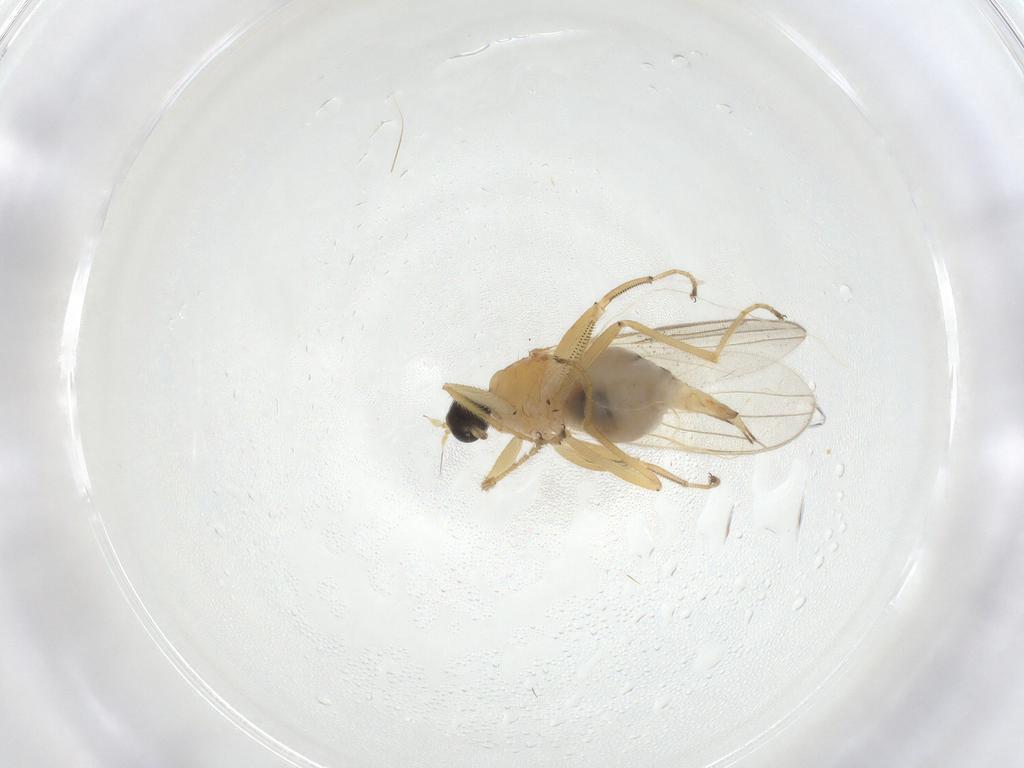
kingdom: Animalia
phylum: Arthropoda
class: Insecta
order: Diptera
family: Hybotidae
